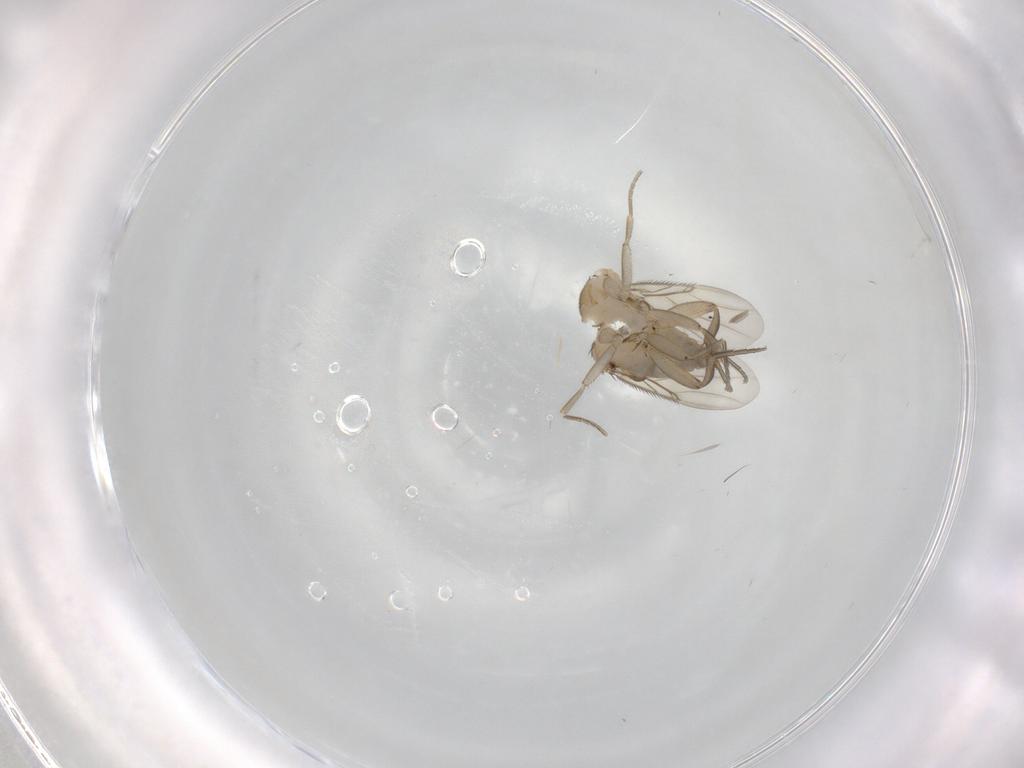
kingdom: Animalia
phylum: Arthropoda
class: Insecta
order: Diptera
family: Phoridae
